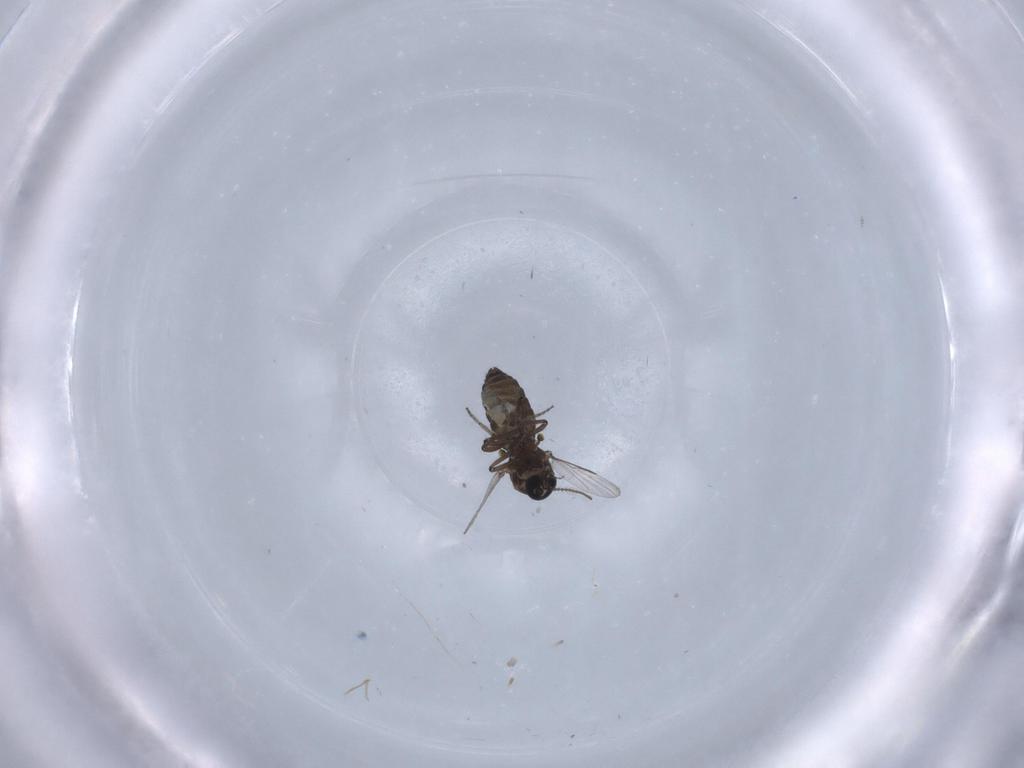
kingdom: Animalia
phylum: Arthropoda
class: Insecta
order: Diptera
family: Ceratopogonidae
